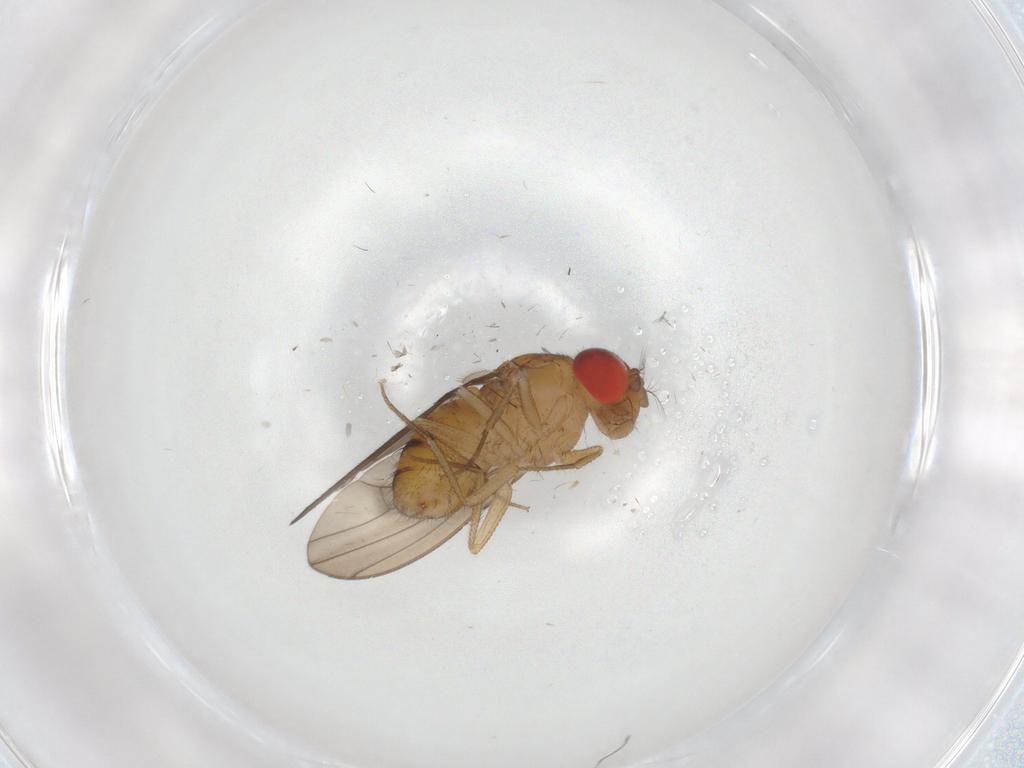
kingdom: Animalia
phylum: Arthropoda
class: Insecta
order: Diptera
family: Drosophilidae
